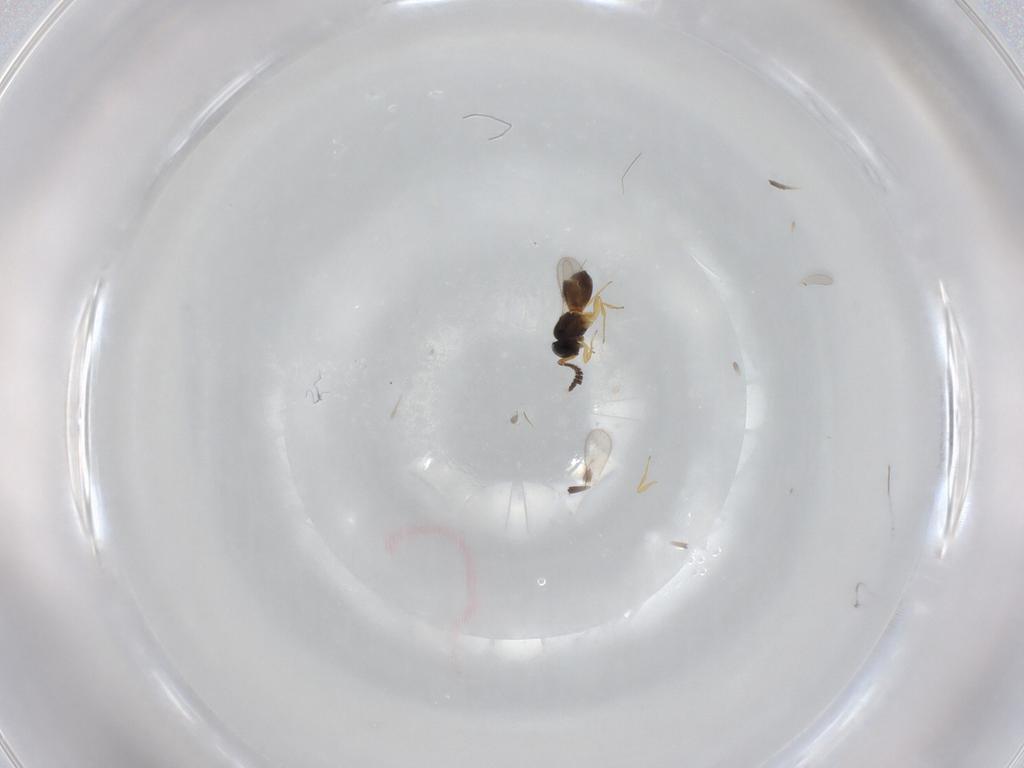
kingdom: Animalia
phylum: Arthropoda
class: Insecta
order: Hymenoptera
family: Scelionidae
